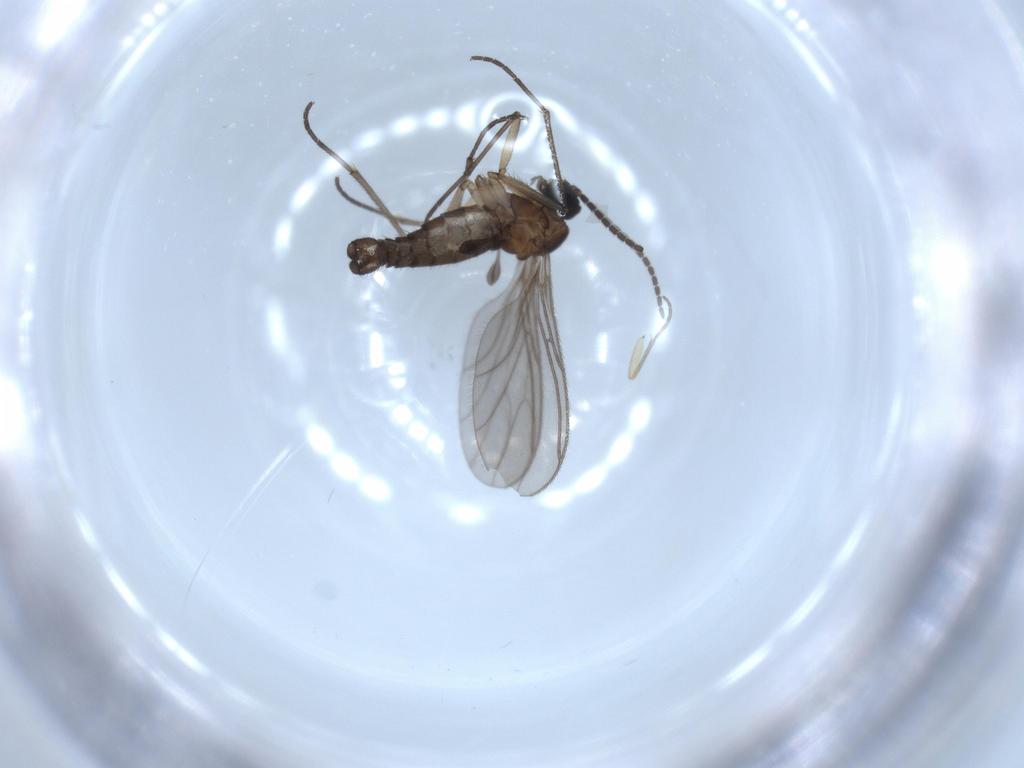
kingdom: Animalia
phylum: Arthropoda
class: Insecta
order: Diptera
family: Sciaridae
